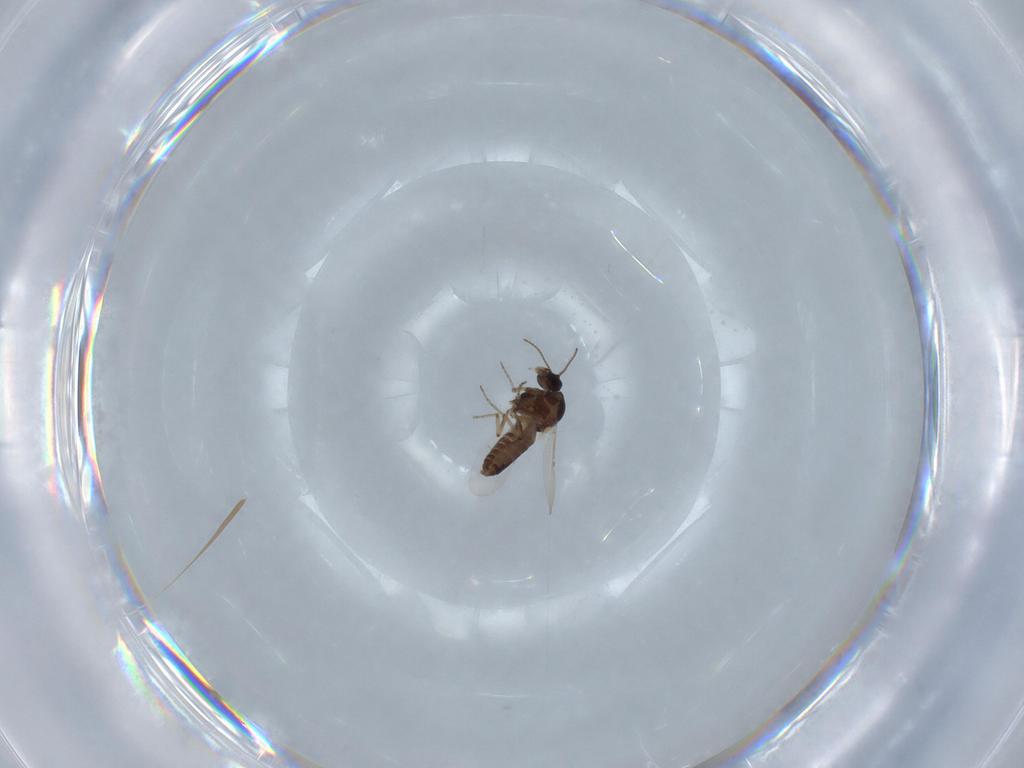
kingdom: Animalia
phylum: Arthropoda
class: Insecta
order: Diptera
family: Ceratopogonidae
